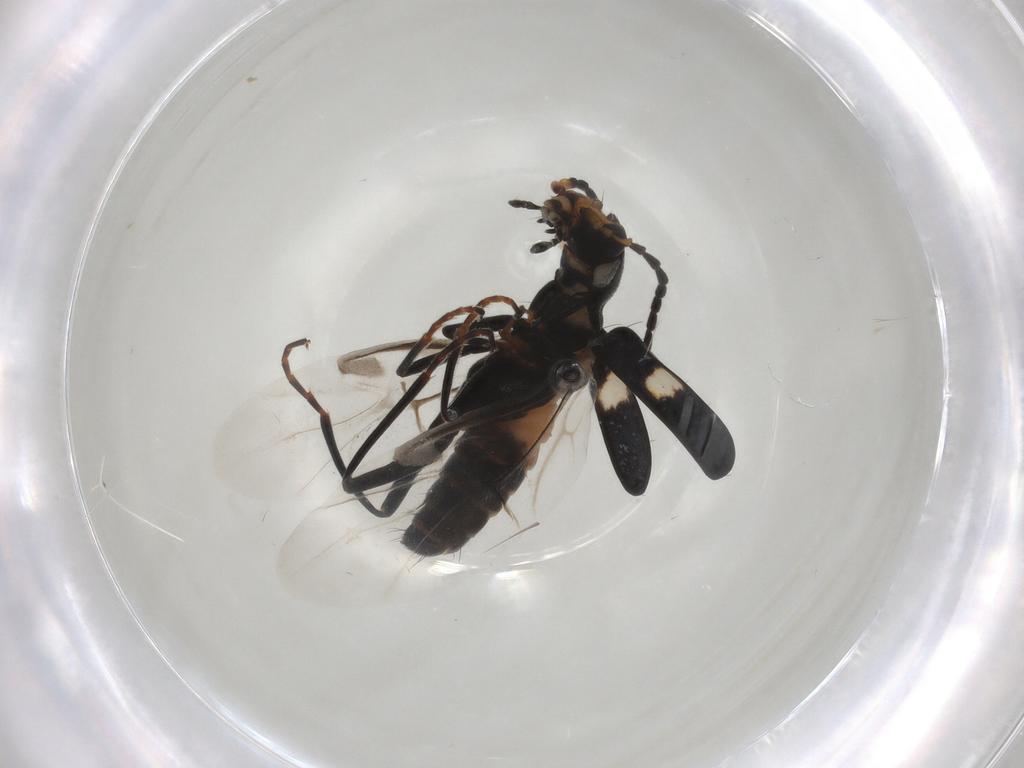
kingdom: Animalia
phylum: Arthropoda
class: Insecta
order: Coleoptera
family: Melyridae
